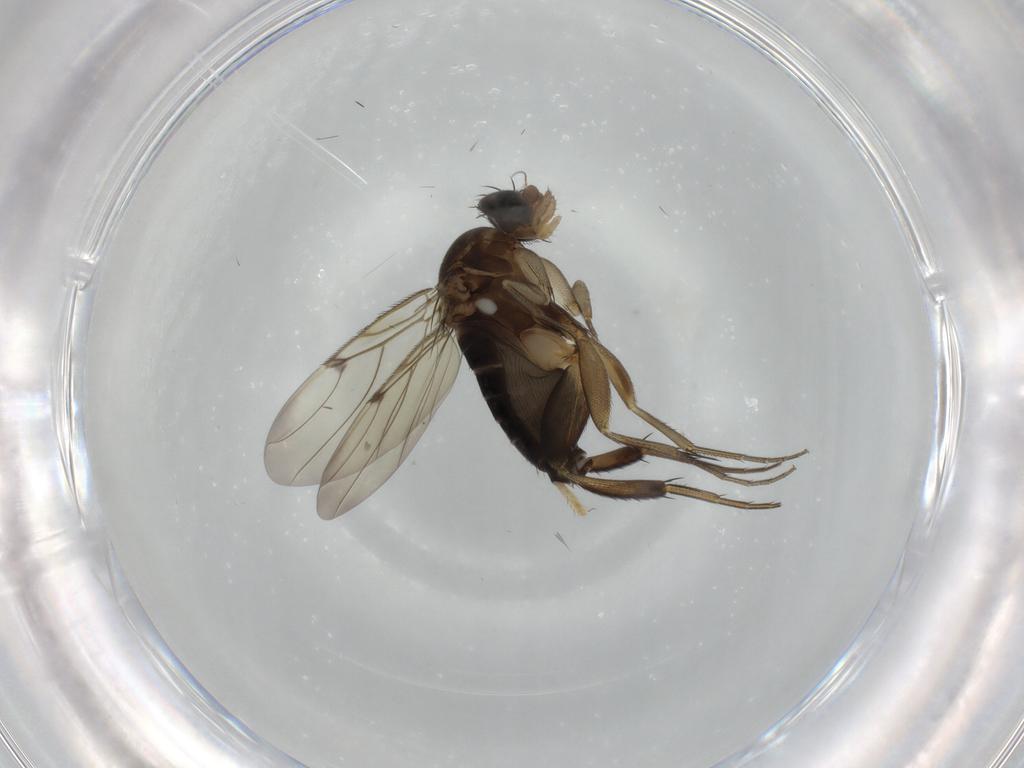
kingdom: Animalia
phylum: Arthropoda
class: Insecta
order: Diptera
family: Phoridae
